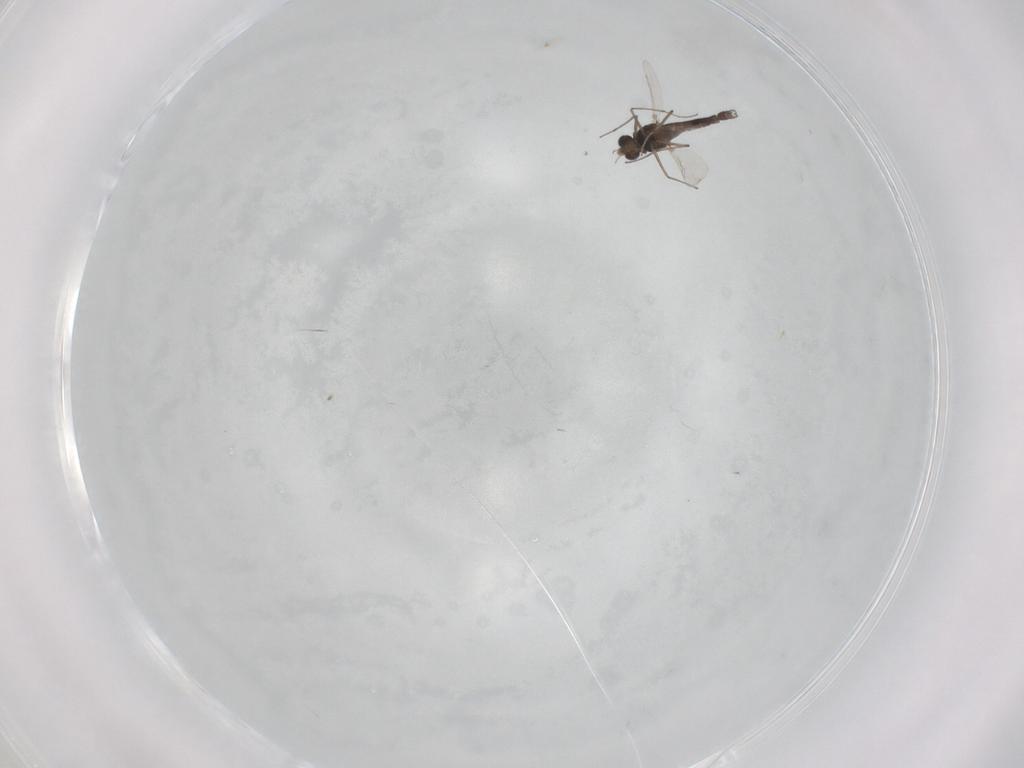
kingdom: Animalia
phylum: Arthropoda
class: Insecta
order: Diptera
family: Chironomidae
